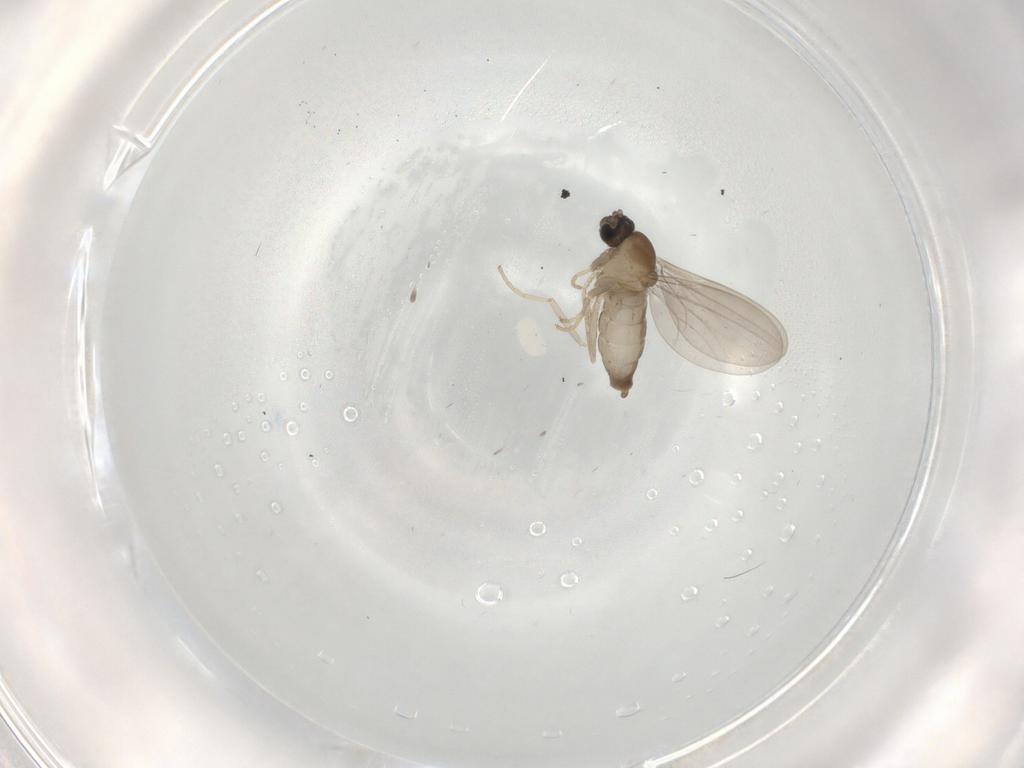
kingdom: Animalia
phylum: Arthropoda
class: Insecta
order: Diptera
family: Cecidomyiidae
